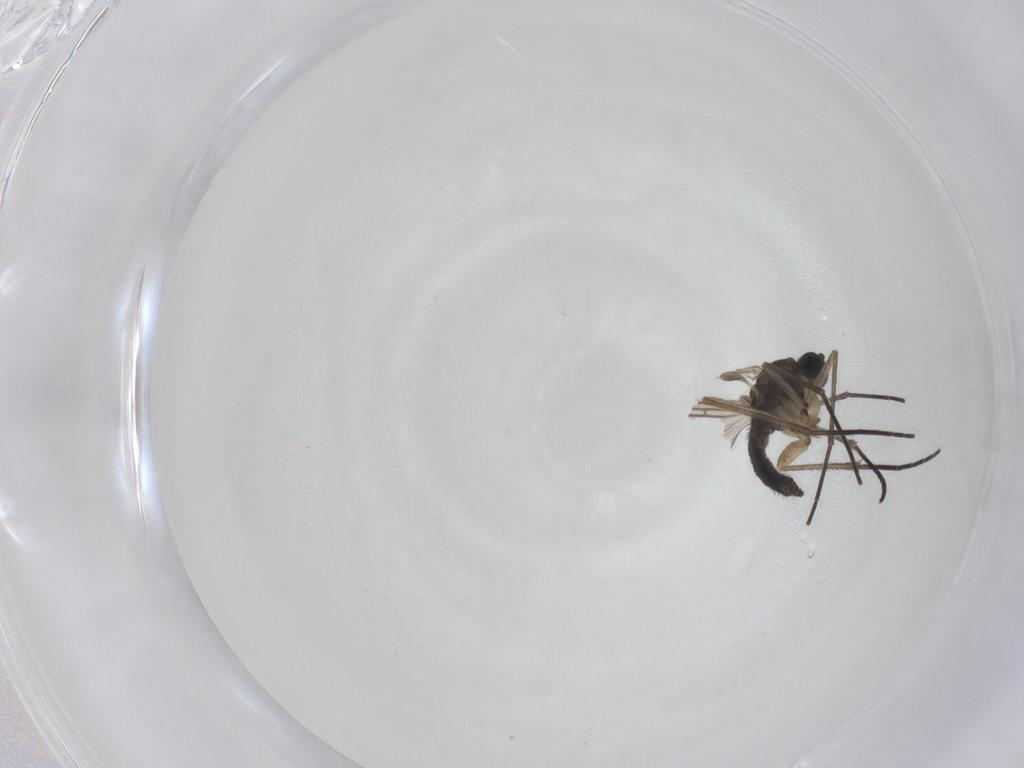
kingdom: Animalia
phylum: Arthropoda
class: Insecta
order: Diptera
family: Sciaridae
